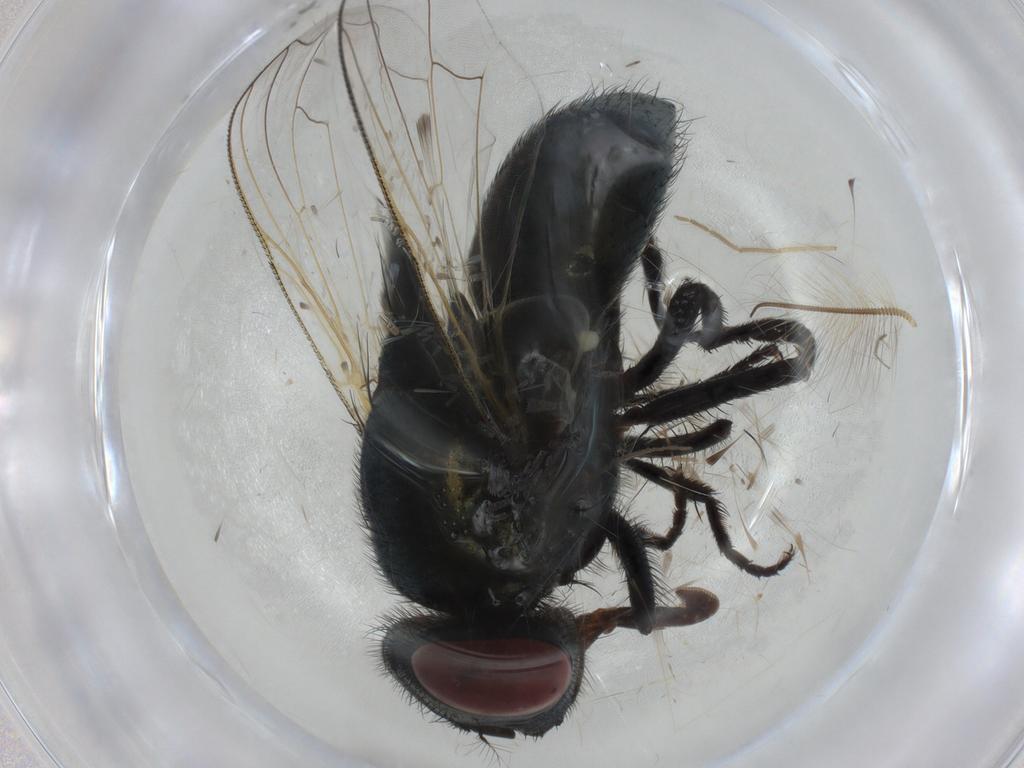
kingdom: Animalia
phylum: Arthropoda
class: Insecta
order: Diptera
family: Muscidae
